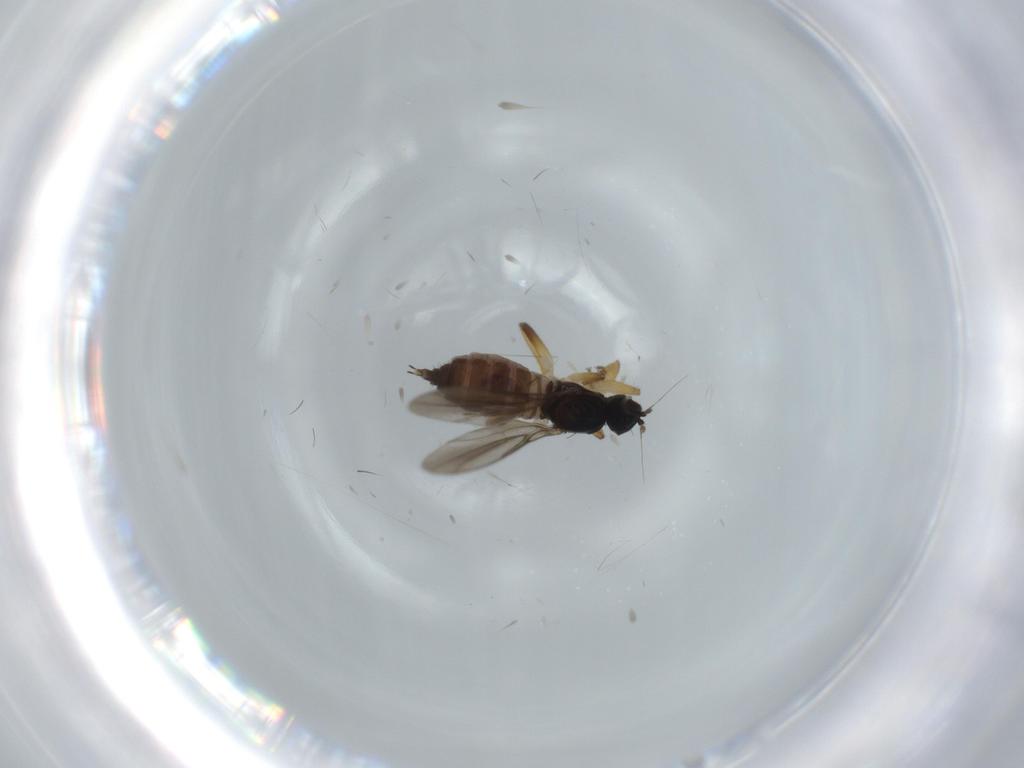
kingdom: Animalia
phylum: Arthropoda
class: Insecta
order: Diptera
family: Hybotidae
